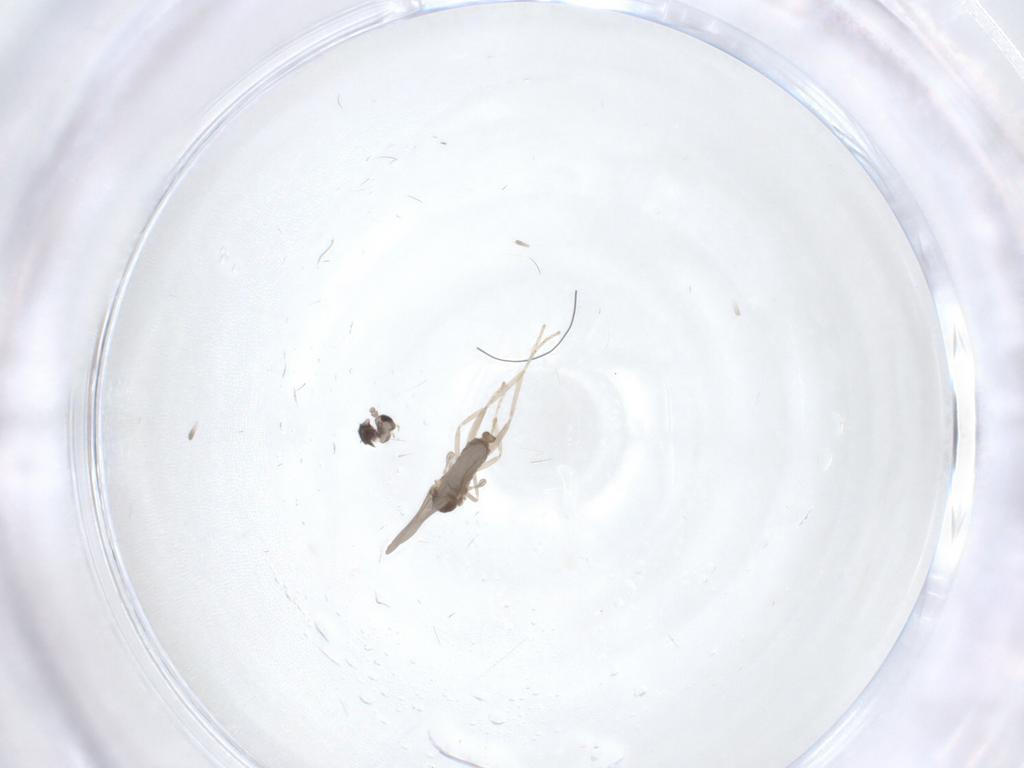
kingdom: Animalia
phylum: Arthropoda
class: Insecta
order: Diptera
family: Cecidomyiidae
